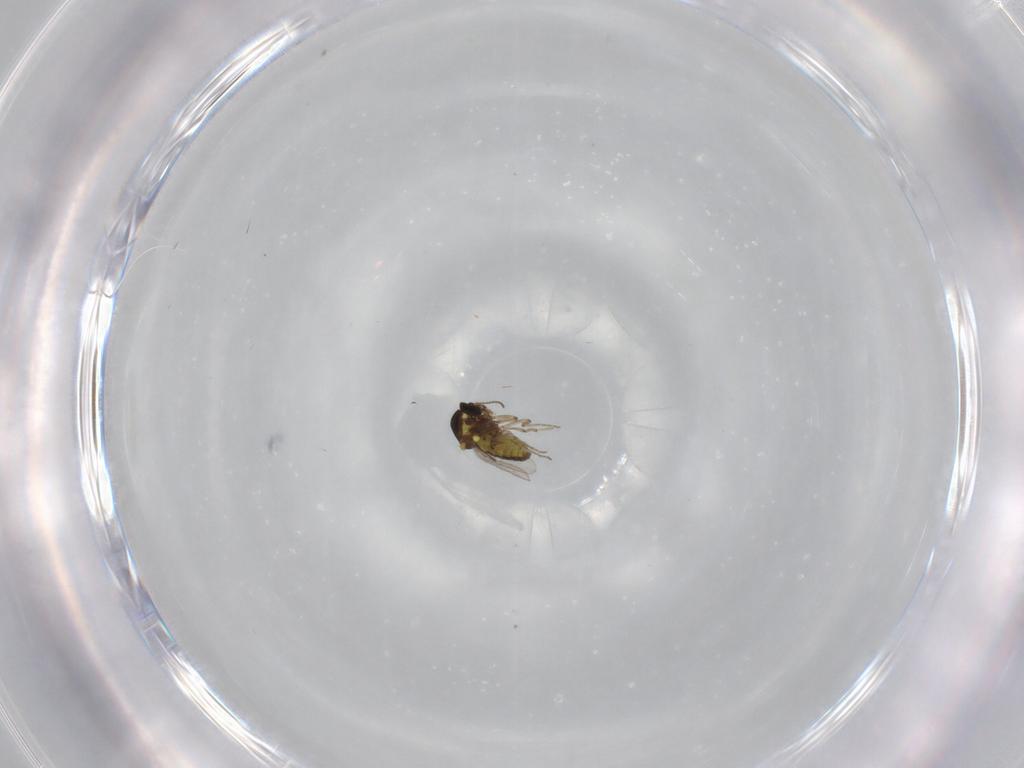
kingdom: Animalia
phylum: Arthropoda
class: Insecta
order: Diptera
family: Ceratopogonidae
